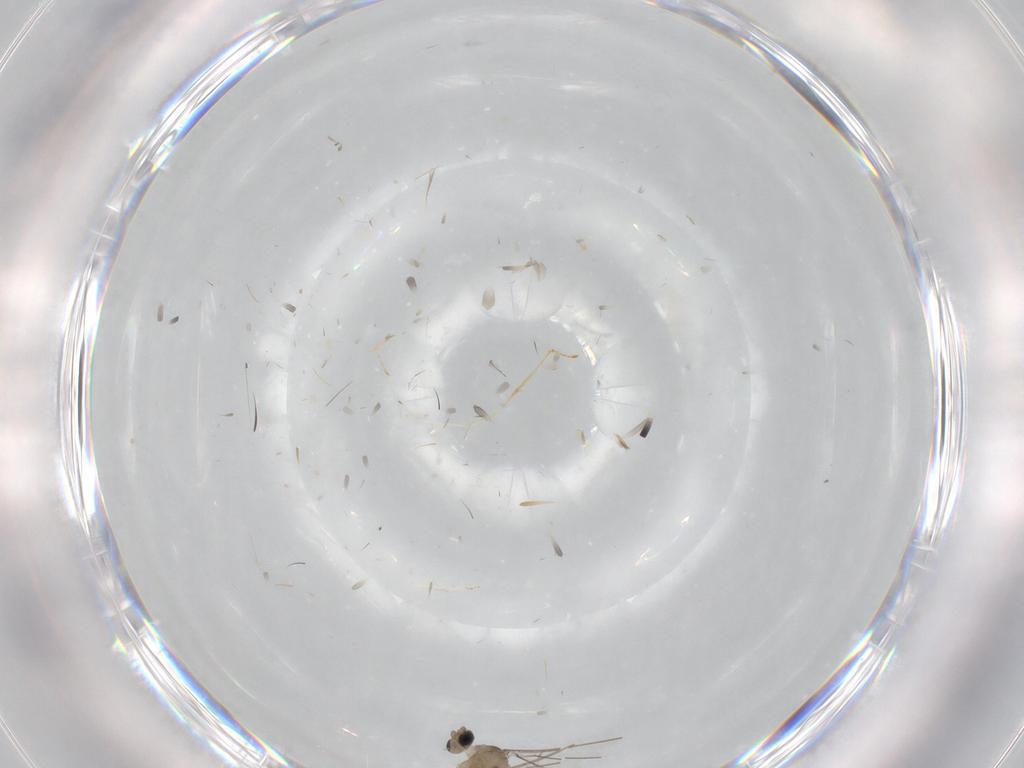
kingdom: Animalia
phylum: Arthropoda
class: Insecta
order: Diptera
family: Cecidomyiidae
